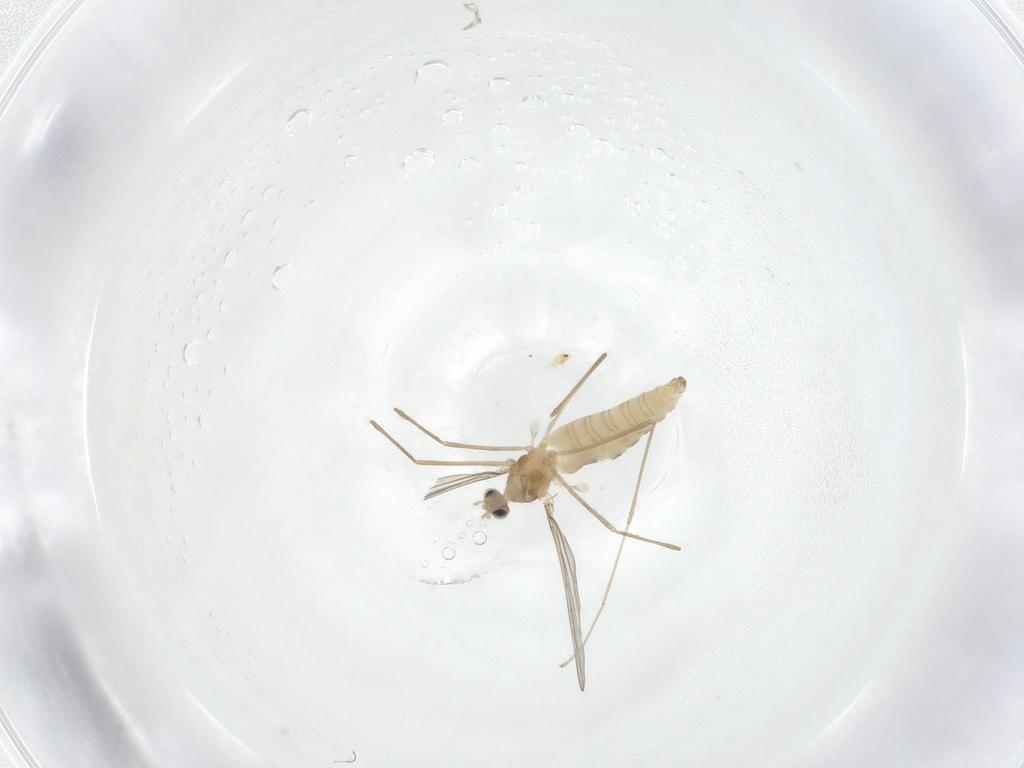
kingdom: Animalia
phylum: Arthropoda
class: Insecta
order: Diptera
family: Cecidomyiidae
